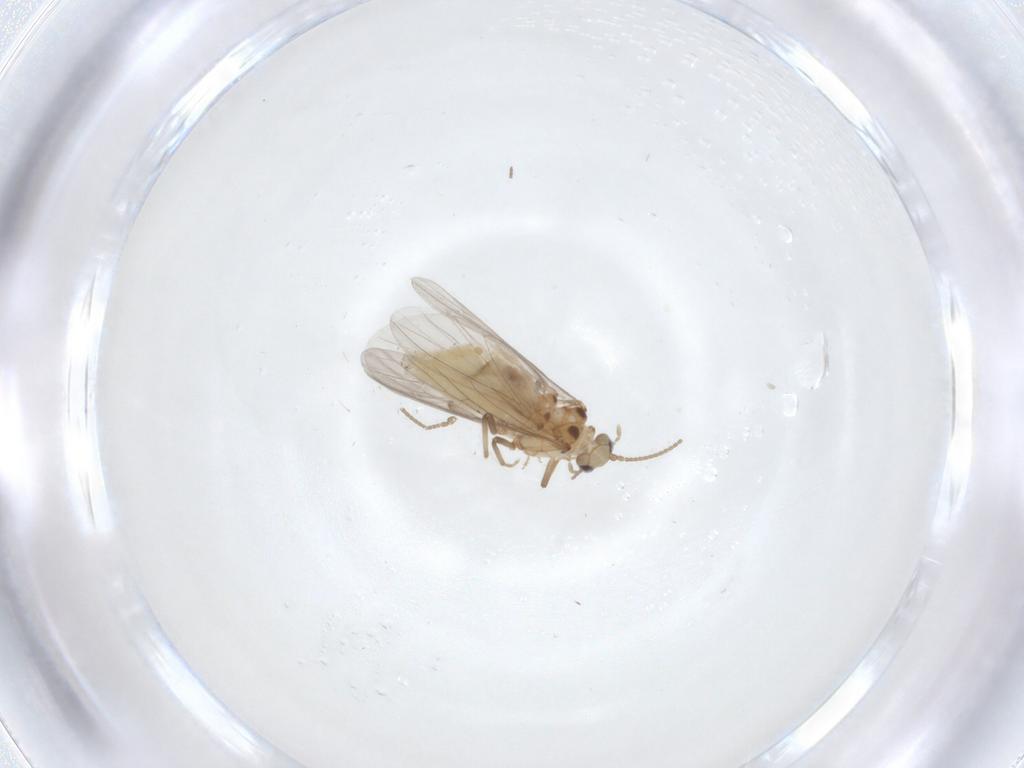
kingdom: Animalia
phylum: Arthropoda
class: Insecta
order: Neuroptera
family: Coniopterygidae
